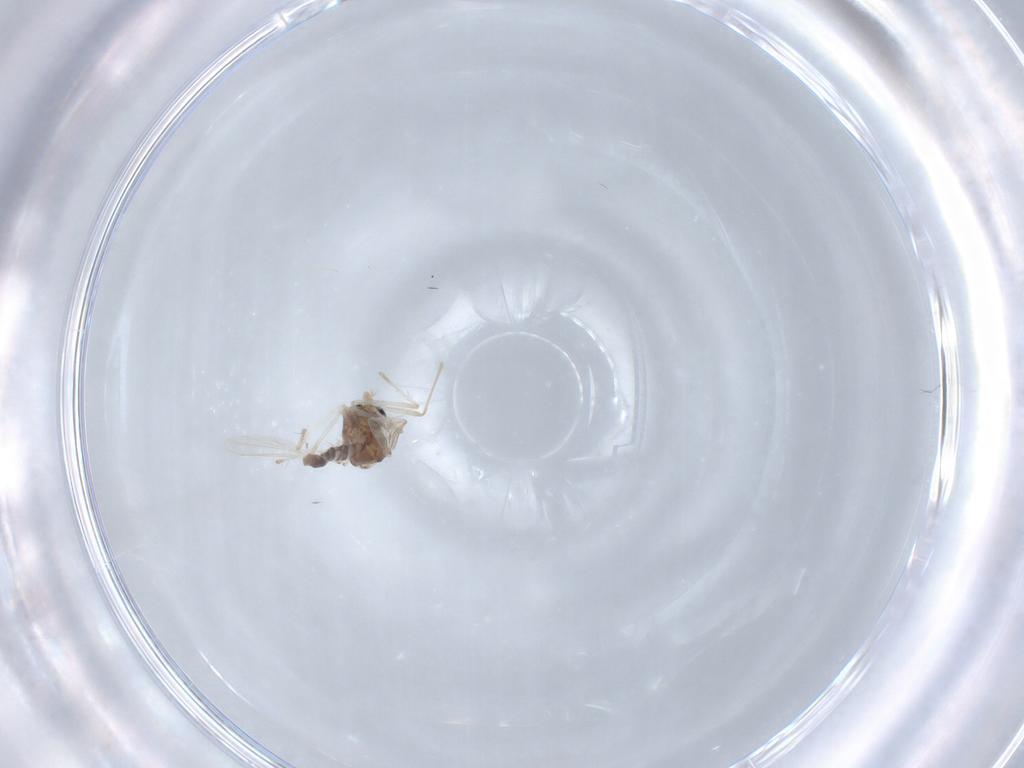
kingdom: Animalia
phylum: Arthropoda
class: Insecta
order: Diptera
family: Chironomidae
